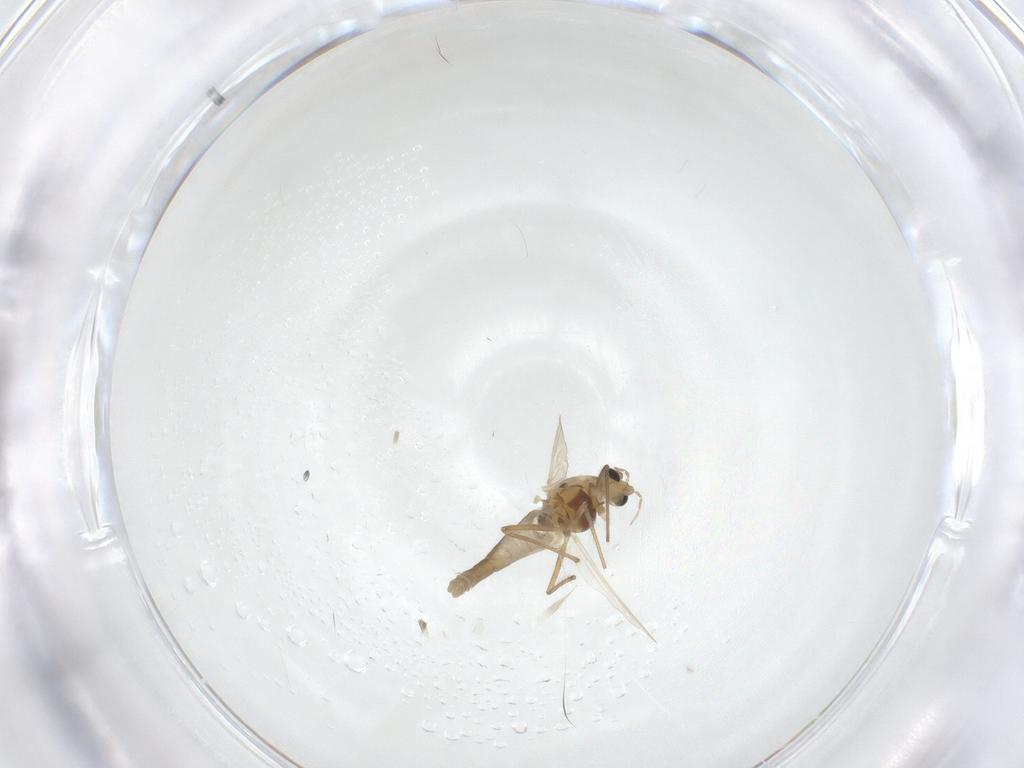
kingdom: Animalia
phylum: Arthropoda
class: Insecta
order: Diptera
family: Chironomidae
